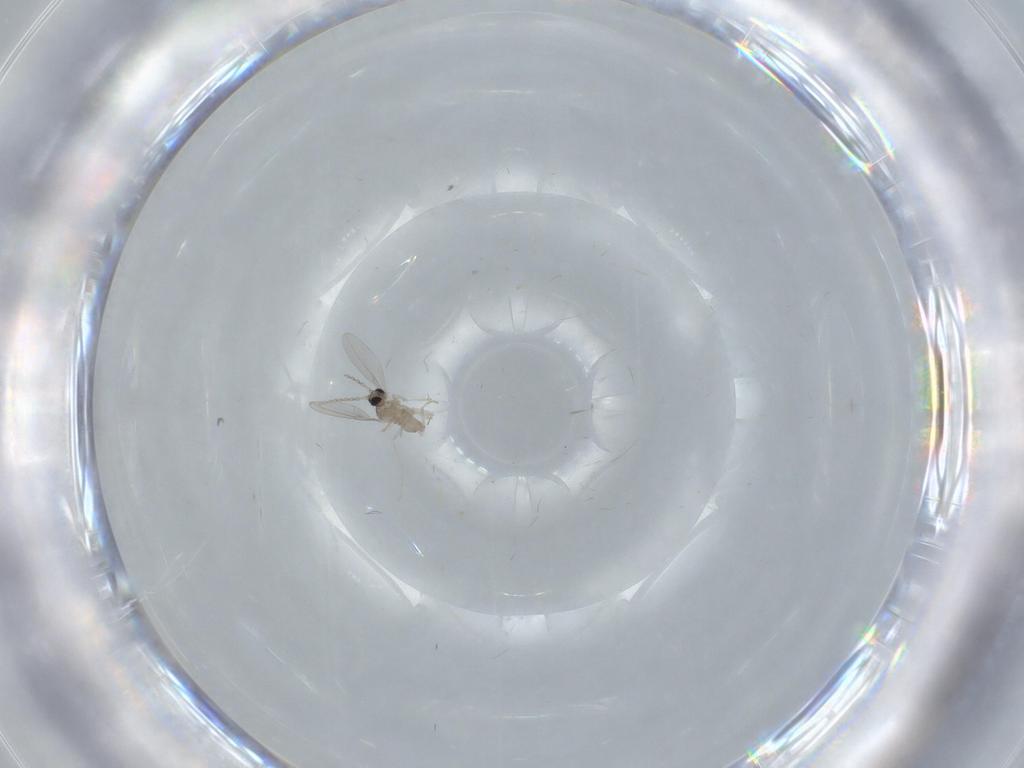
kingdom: Animalia
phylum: Arthropoda
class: Insecta
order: Diptera
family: Cecidomyiidae
